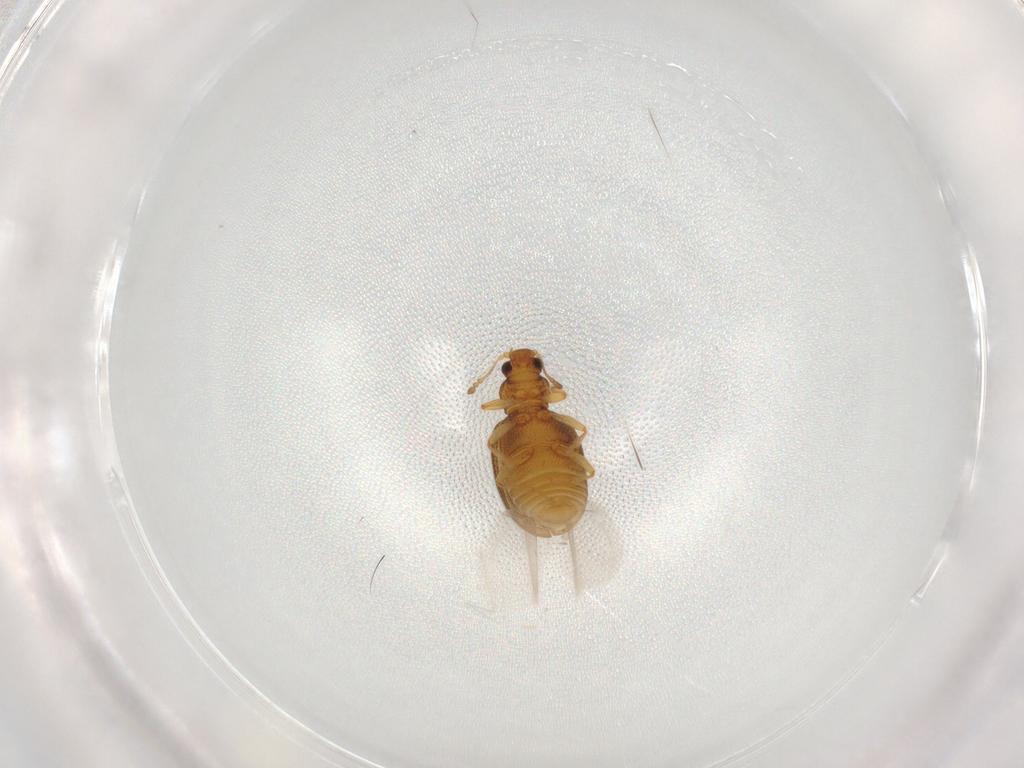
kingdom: Animalia
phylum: Arthropoda
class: Insecta
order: Coleoptera
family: Latridiidae
